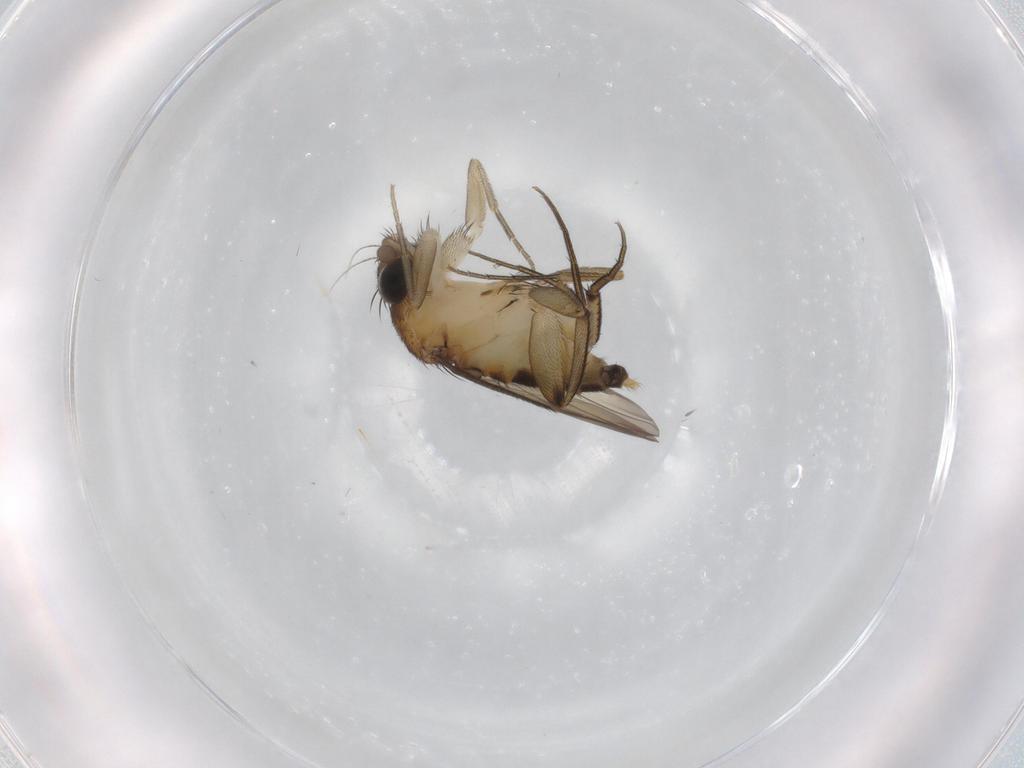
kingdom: Animalia
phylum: Arthropoda
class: Insecta
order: Diptera
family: Phoridae
